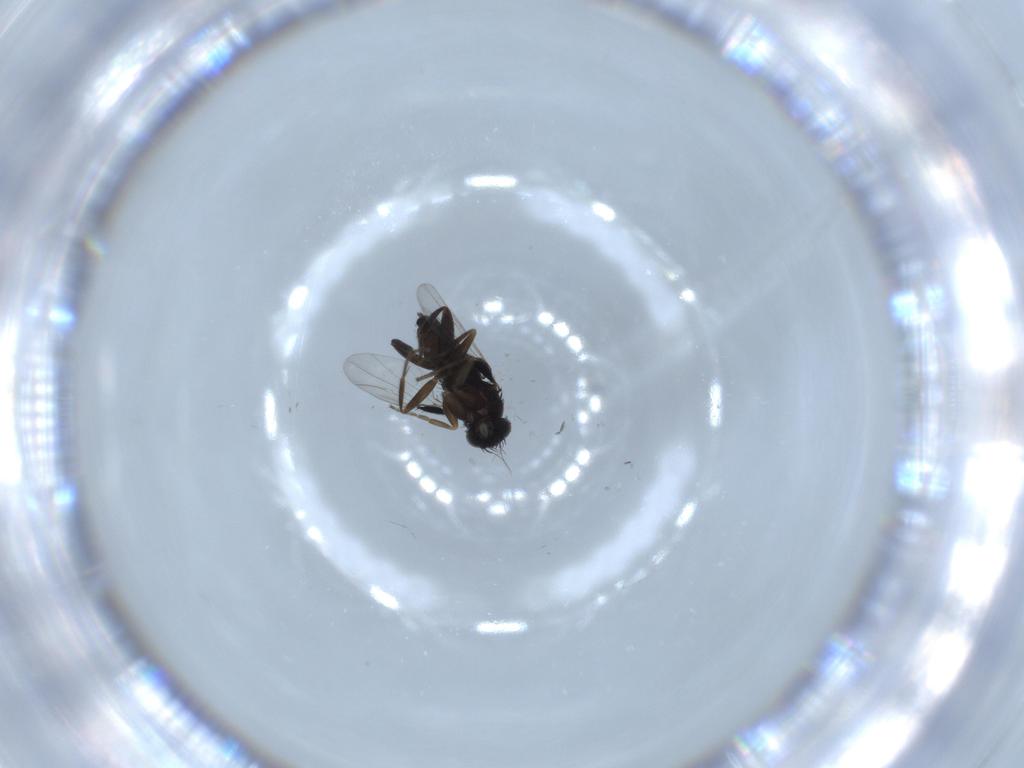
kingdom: Animalia
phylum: Arthropoda
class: Insecta
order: Diptera
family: Phoridae
